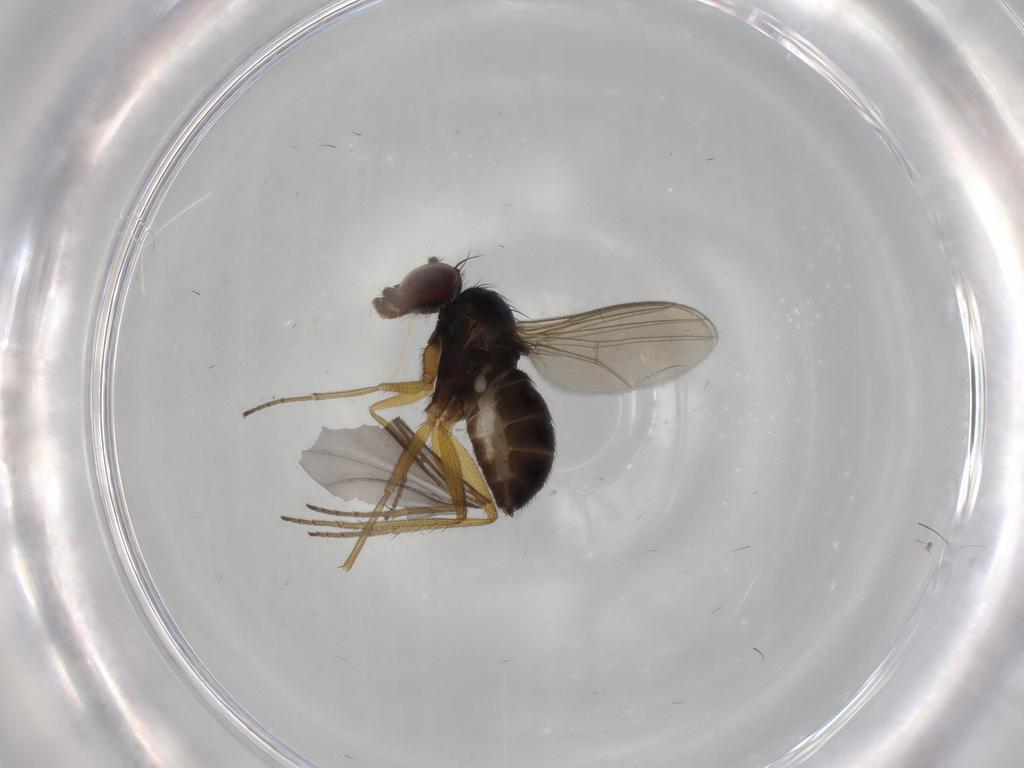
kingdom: Animalia
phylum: Arthropoda
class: Insecta
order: Diptera
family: Dolichopodidae
